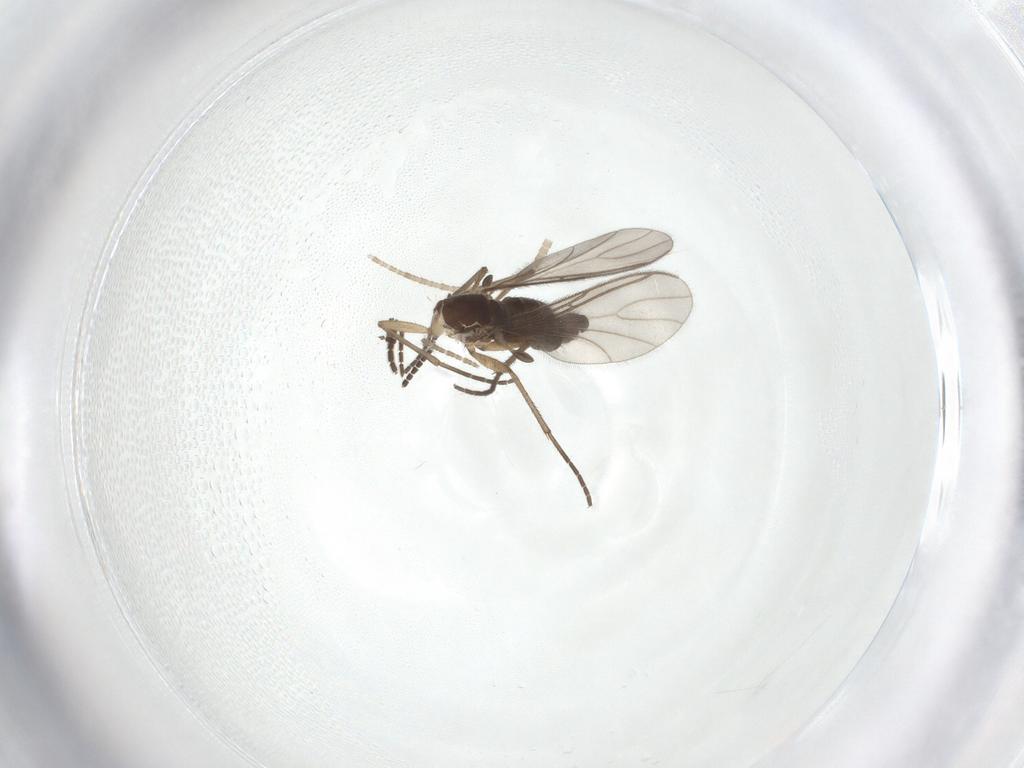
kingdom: Animalia
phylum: Arthropoda
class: Insecta
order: Diptera
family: Sciaridae
